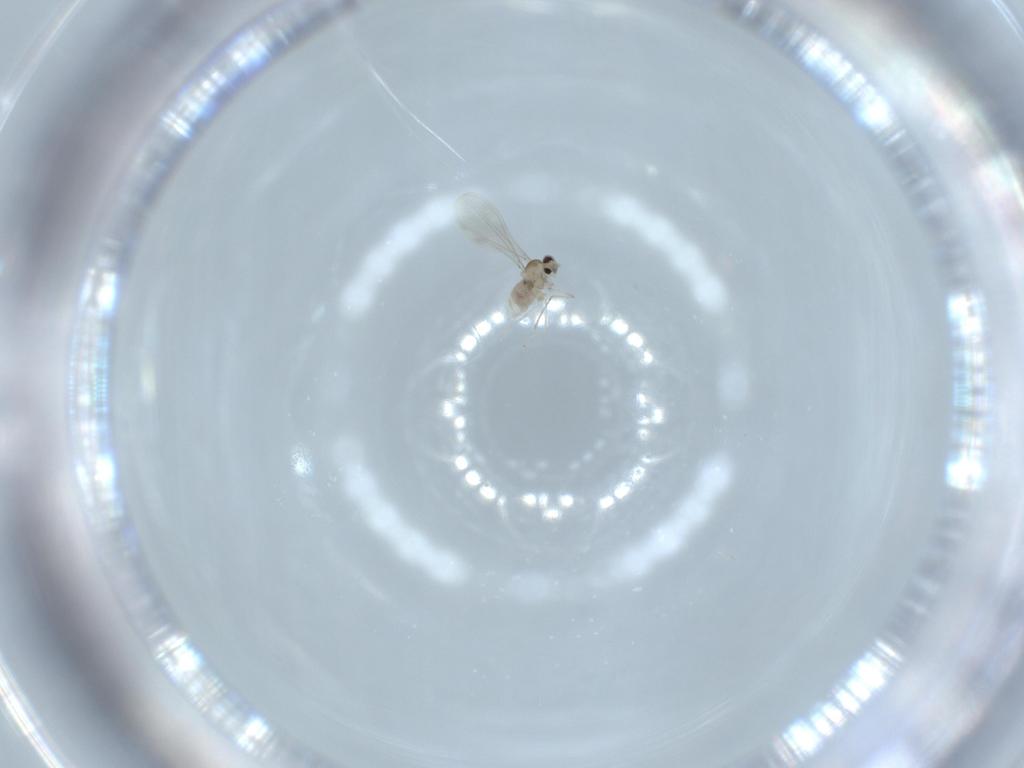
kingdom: Animalia
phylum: Arthropoda
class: Insecta
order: Diptera
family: Cecidomyiidae
